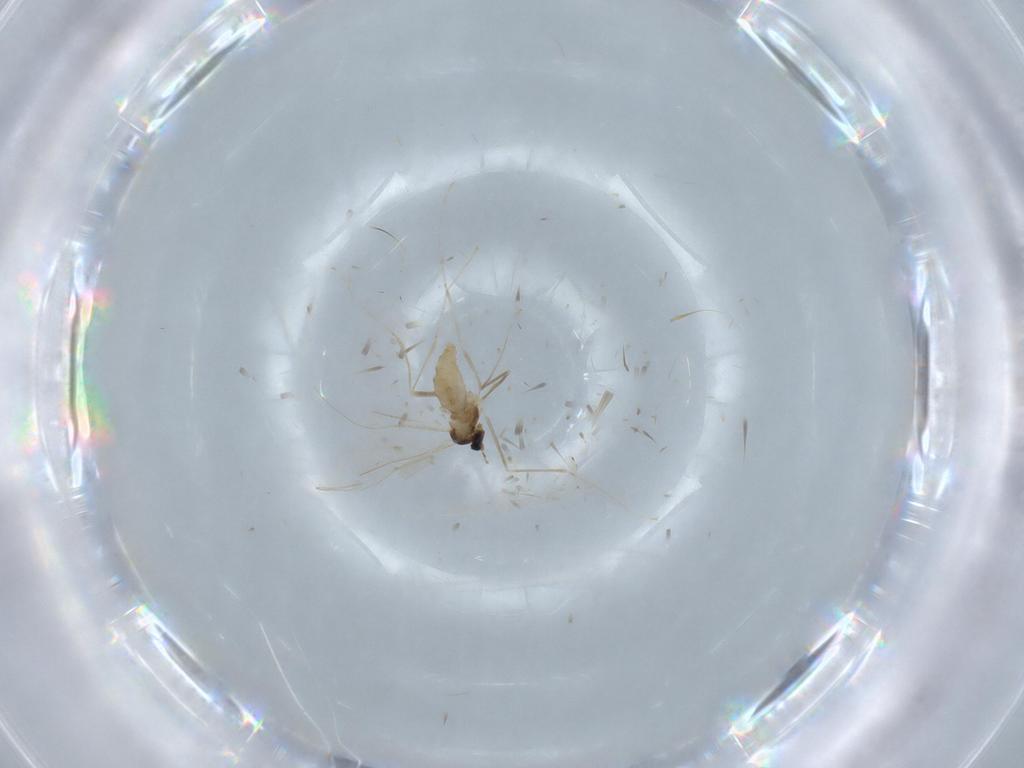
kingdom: Animalia
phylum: Arthropoda
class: Insecta
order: Diptera
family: Cecidomyiidae
